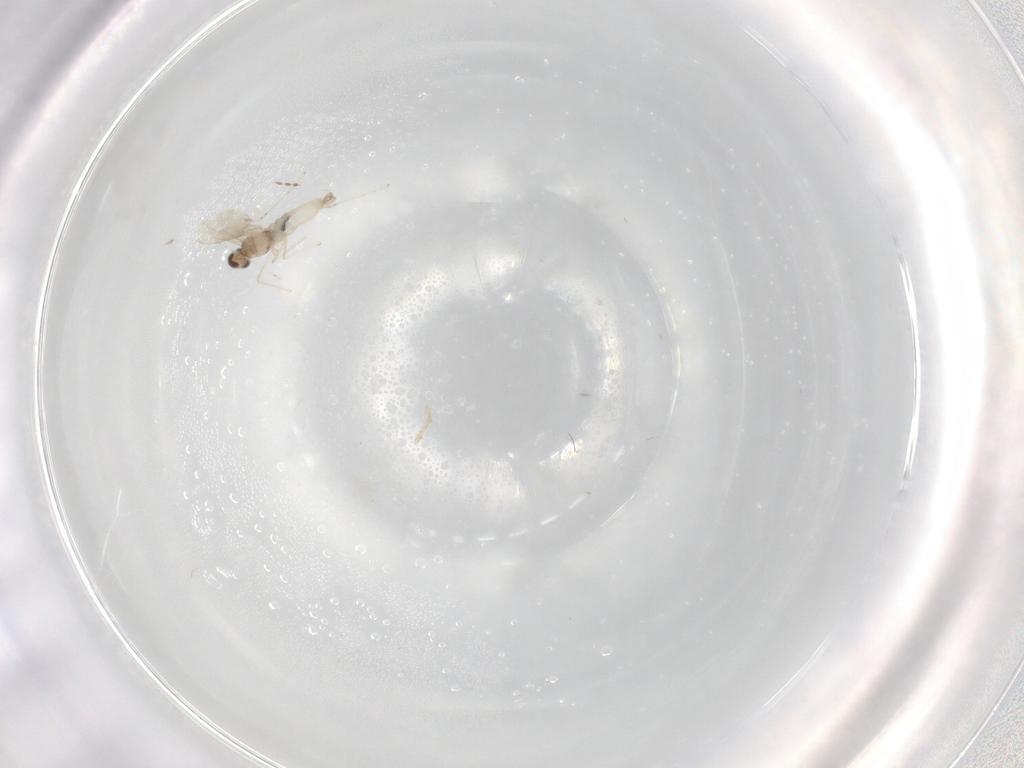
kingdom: Animalia
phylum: Arthropoda
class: Insecta
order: Diptera
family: Cecidomyiidae
